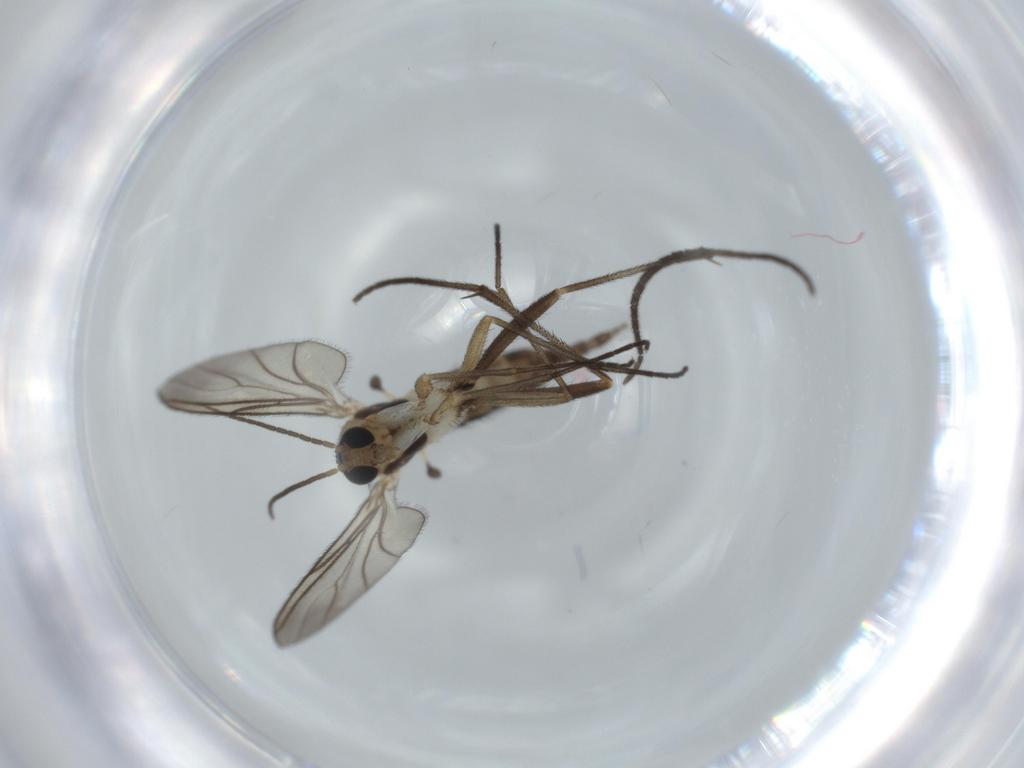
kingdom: Animalia
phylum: Arthropoda
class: Insecta
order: Diptera
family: Sciaridae
